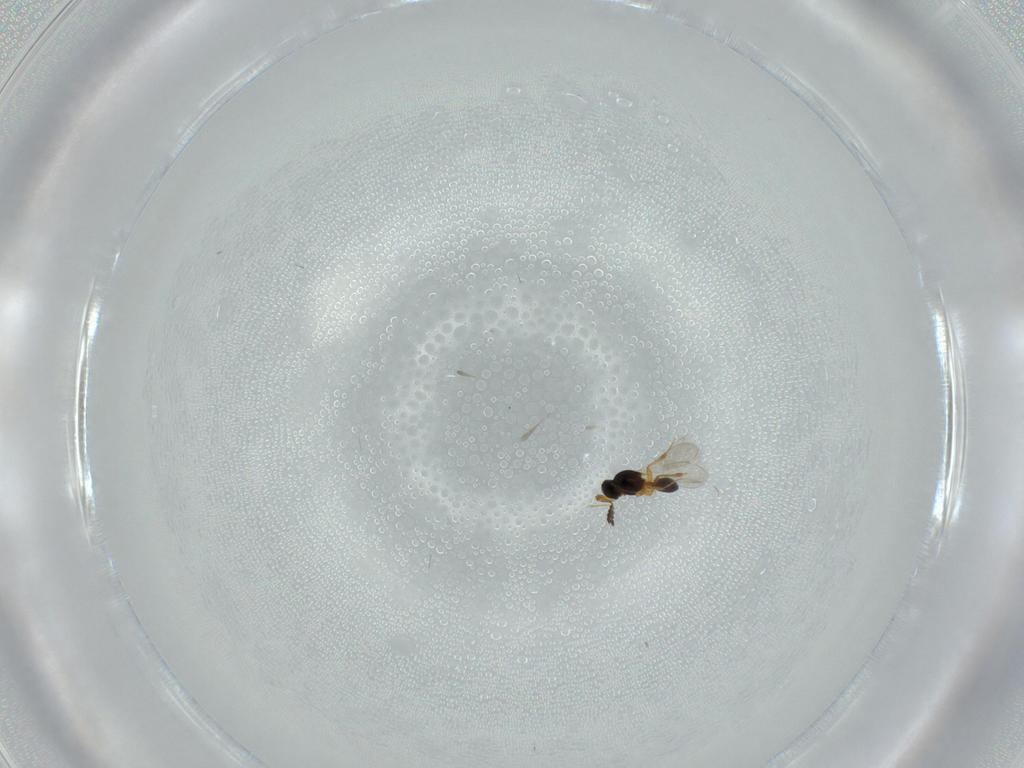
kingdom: Animalia
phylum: Arthropoda
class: Insecta
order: Hymenoptera
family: Platygastridae
